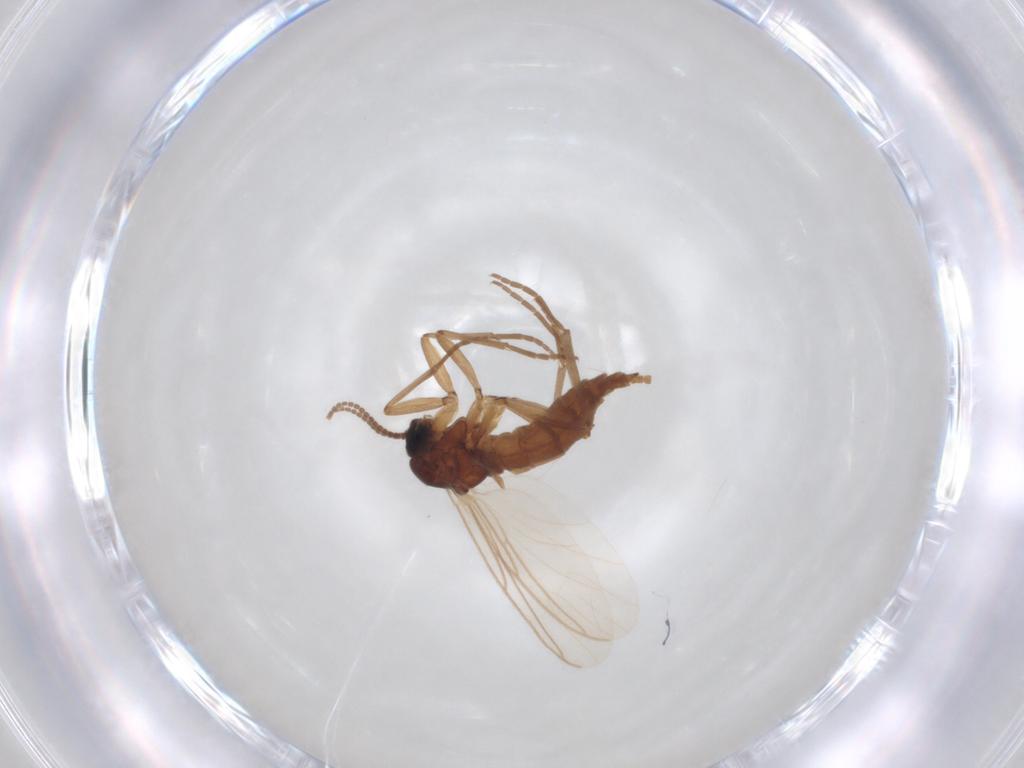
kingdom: Animalia
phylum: Arthropoda
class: Insecta
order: Diptera
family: Sciaridae
